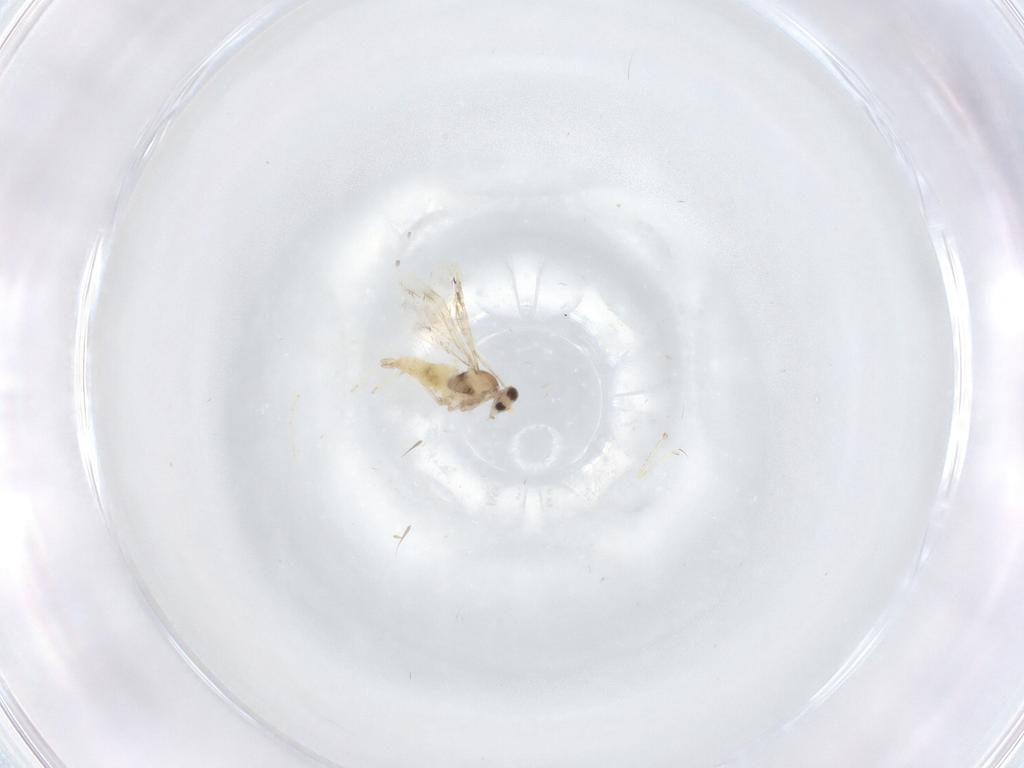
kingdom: Animalia
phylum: Arthropoda
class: Insecta
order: Diptera
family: Cecidomyiidae
